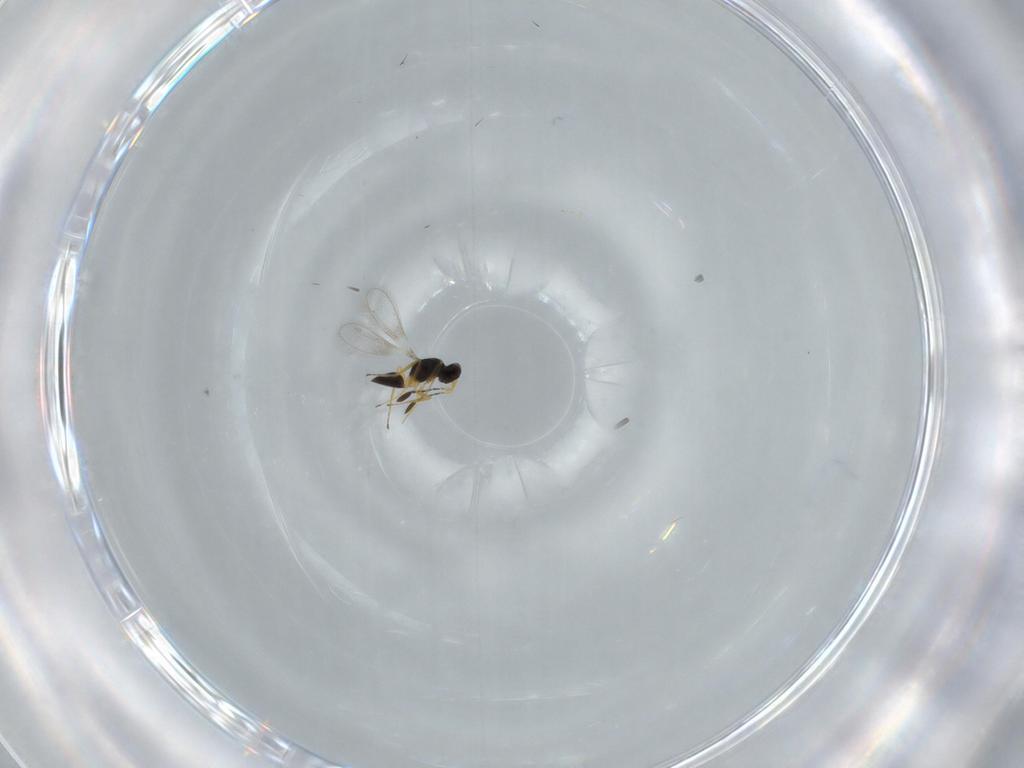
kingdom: Animalia
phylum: Arthropoda
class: Insecta
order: Hymenoptera
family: Mymaridae
